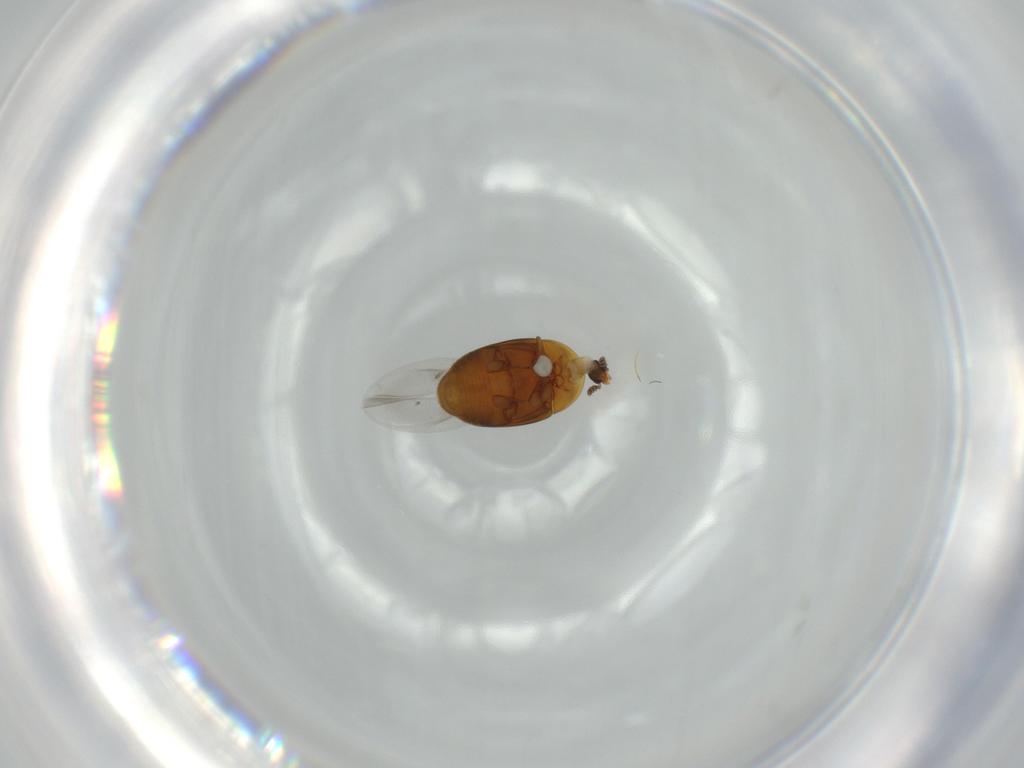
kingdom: Animalia
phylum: Arthropoda
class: Insecta
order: Coleoptera
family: Corylophidae
